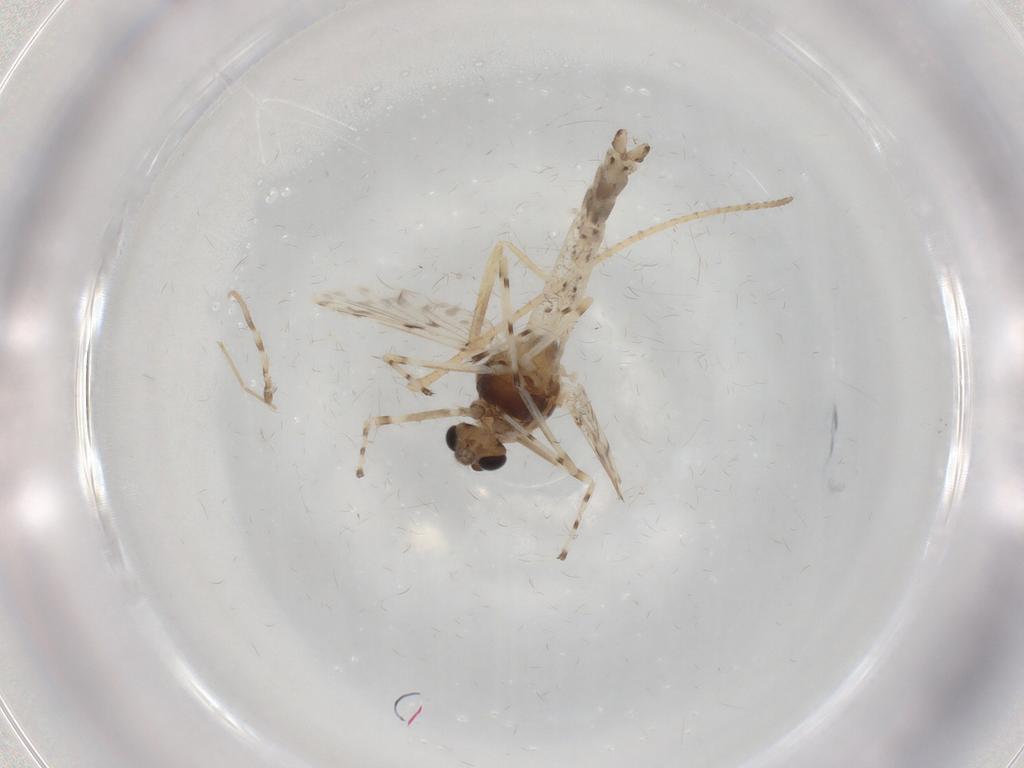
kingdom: Animalia
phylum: Arthropoda
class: Insecta
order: Diptera
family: Chironomidae
